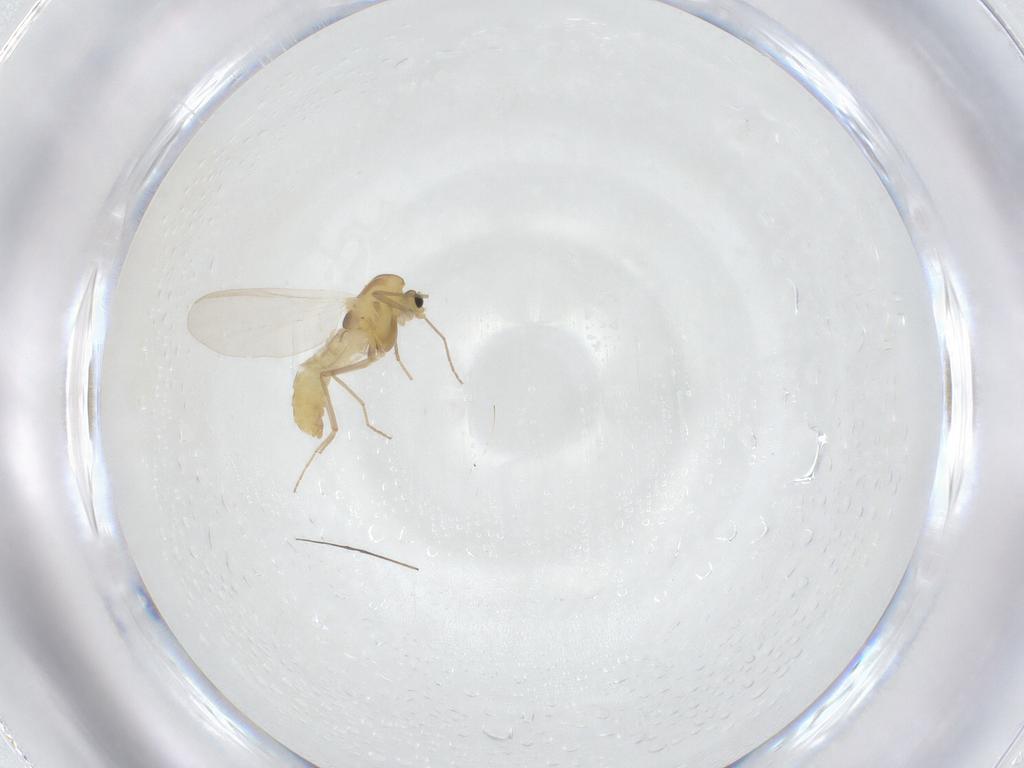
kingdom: Animalia
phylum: Arthropoda
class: Insecta
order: Diptera
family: Chironomidae
